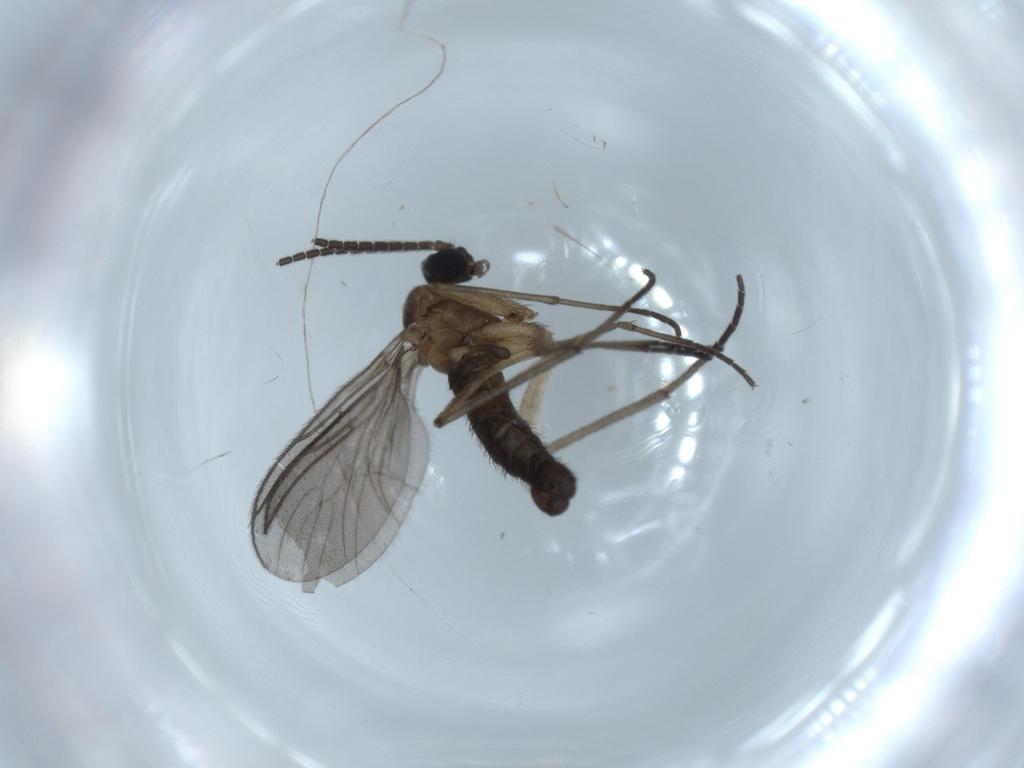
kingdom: Animalia
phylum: Arthropoda
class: Insecta
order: Diptera
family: Sciaridae
